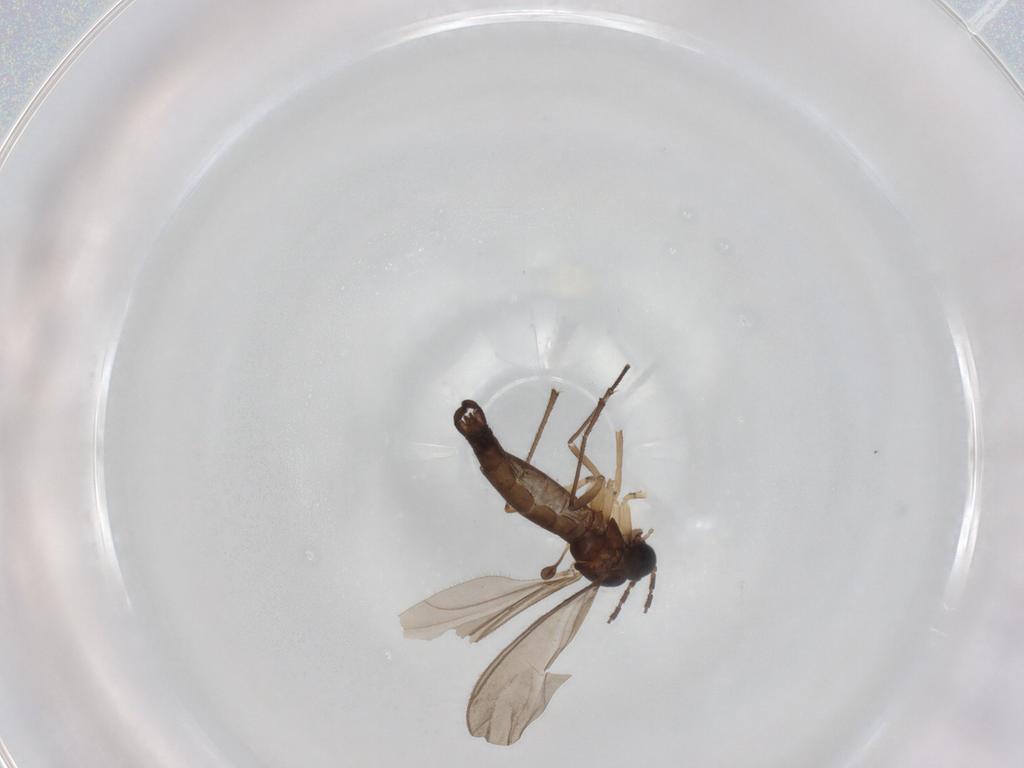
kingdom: Animalia
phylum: Arthropoda
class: Insecta
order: Diptera
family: Sciaridae
